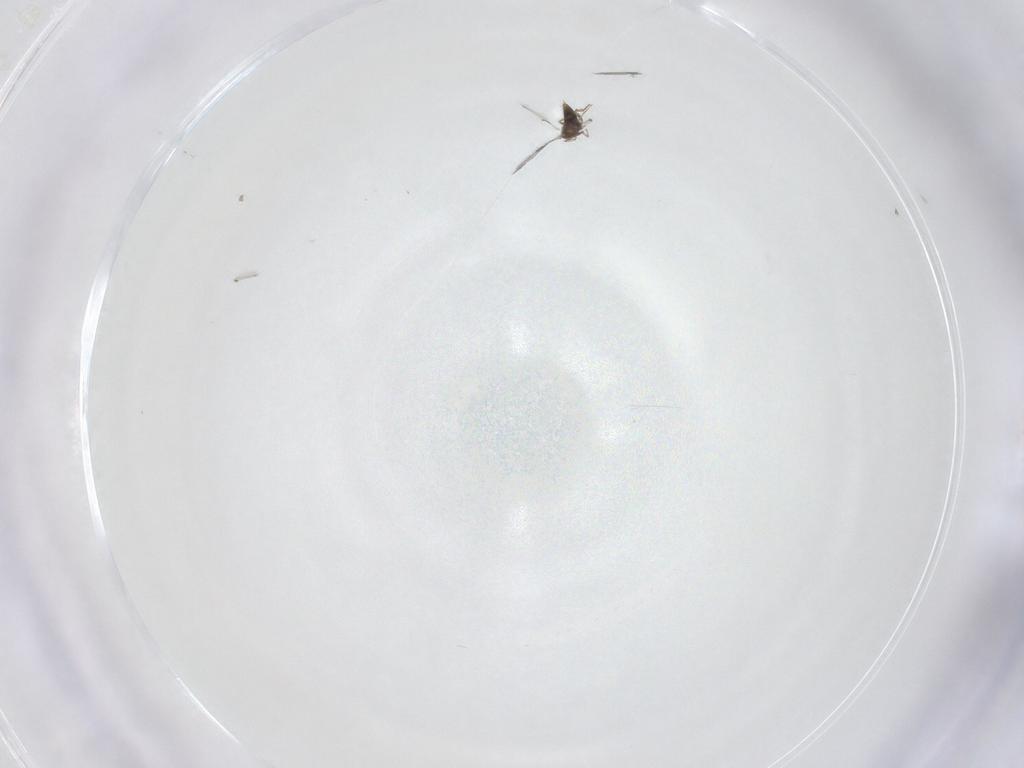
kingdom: Animalia
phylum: Arthropoda
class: Insecta
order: Hymenoptera
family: Trichogrammatidae
